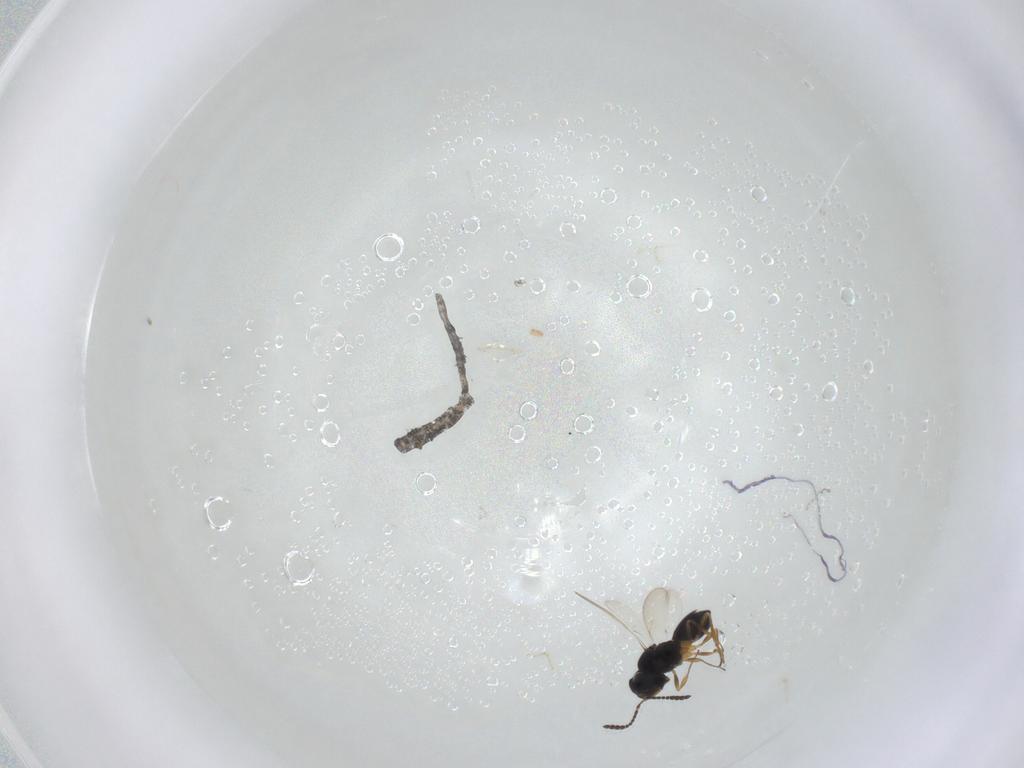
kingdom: Animalia
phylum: Arthropoda
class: Insecta
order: Hymenoptera
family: Scelionidae
